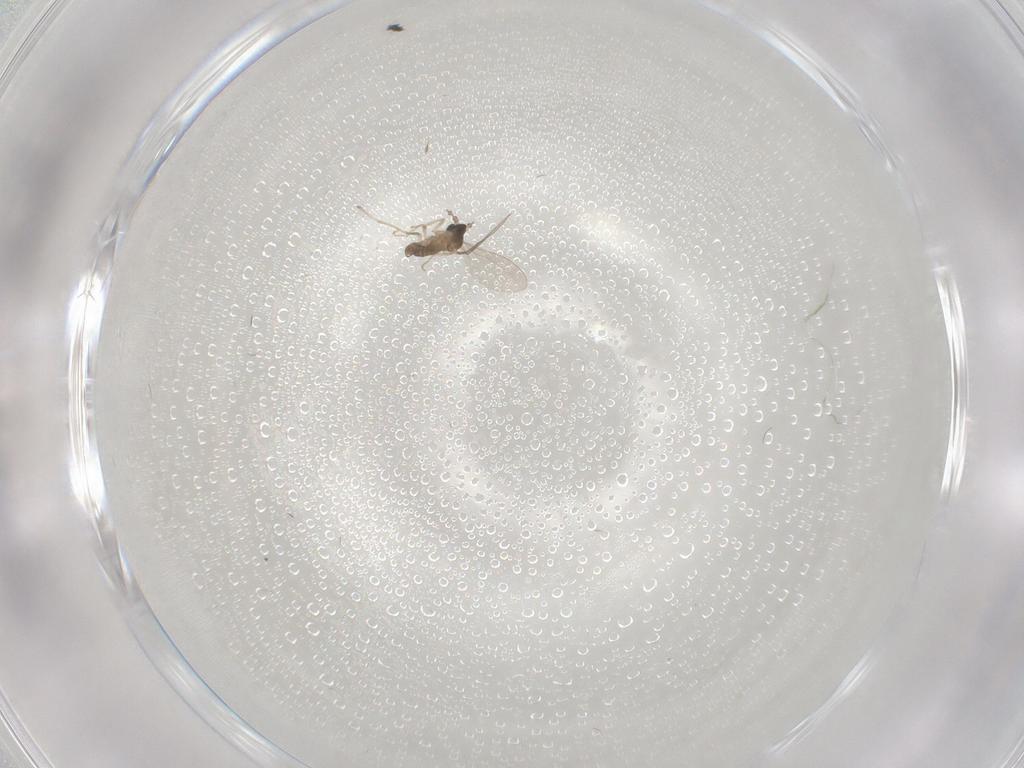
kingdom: Animalia
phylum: Arthropoda
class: Insecta
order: Diptera
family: Cecidomyiidae
